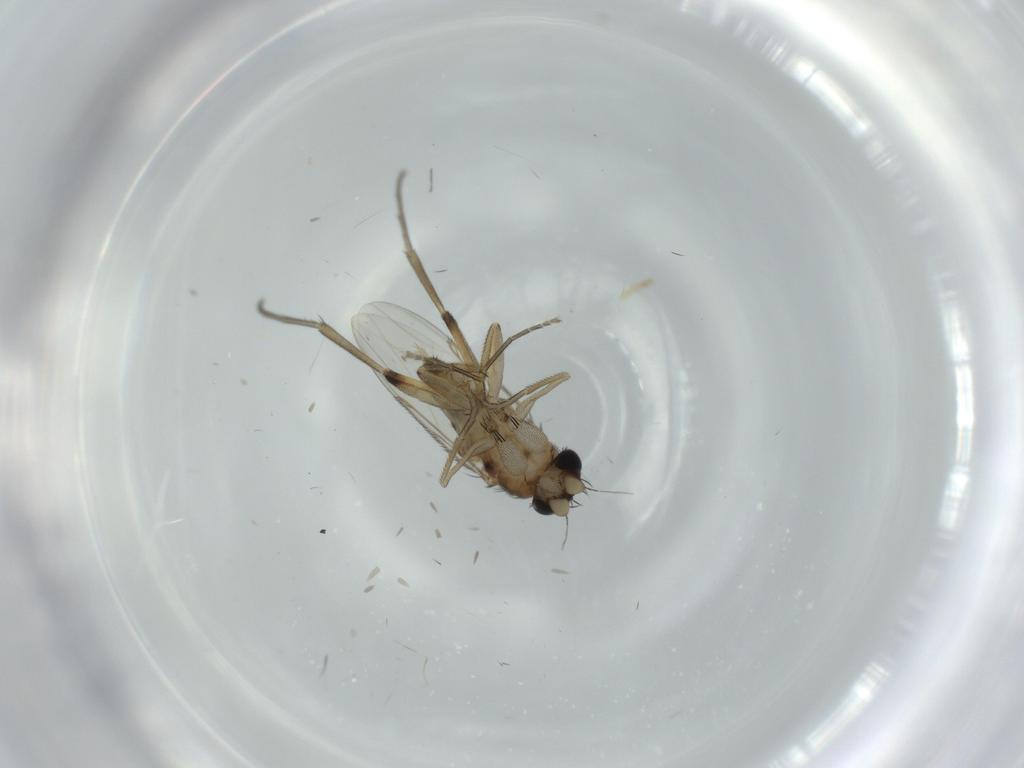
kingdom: Animalia
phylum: Arthropoda
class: Insecta
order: Diptera
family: Phoridae
